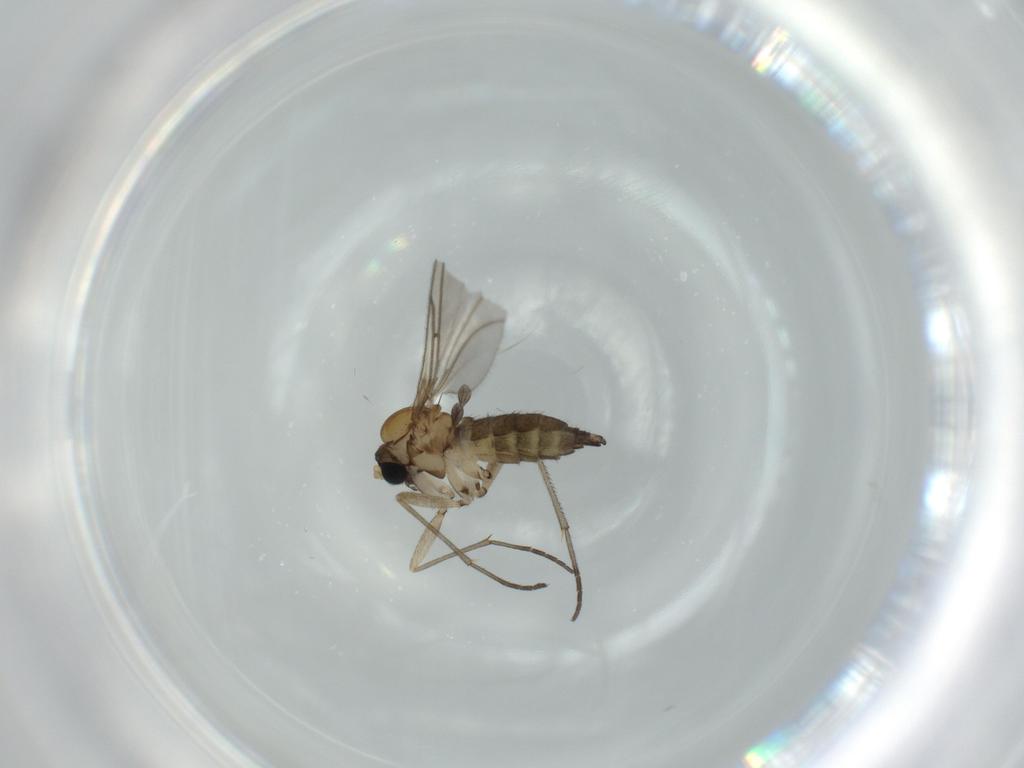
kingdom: Animalia
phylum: Arthropoda
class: Insecta
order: Diptera
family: Sciaridae
